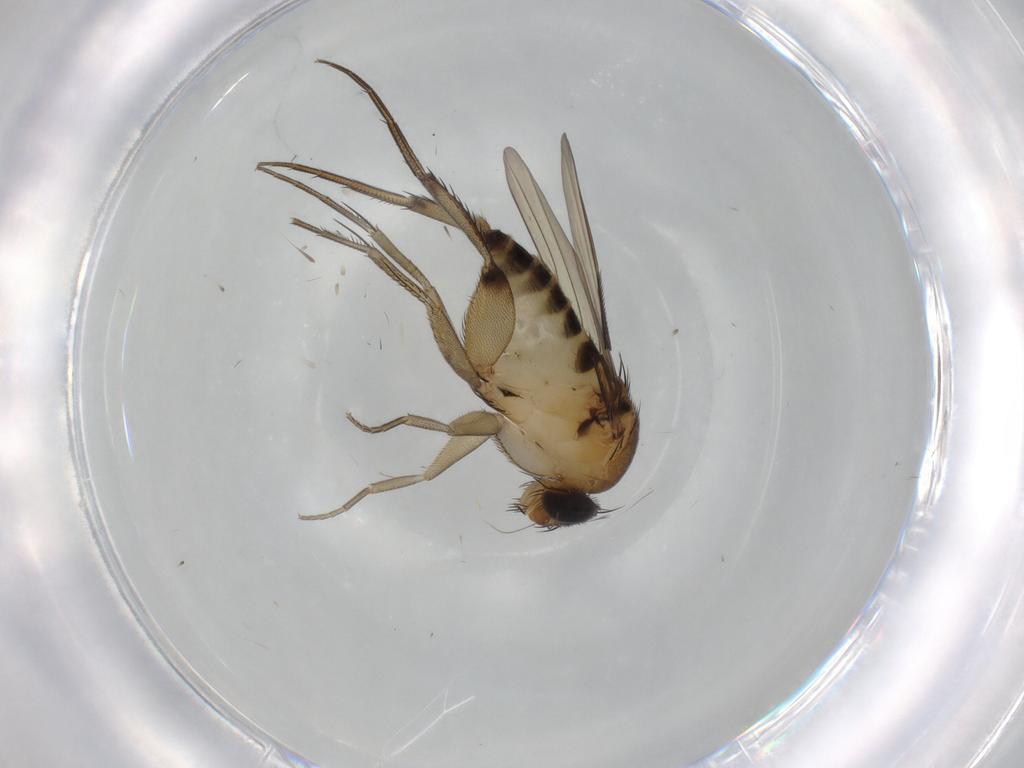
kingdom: Animalia
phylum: Arthropoda
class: Insecta
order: Diptera
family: Phoridae
